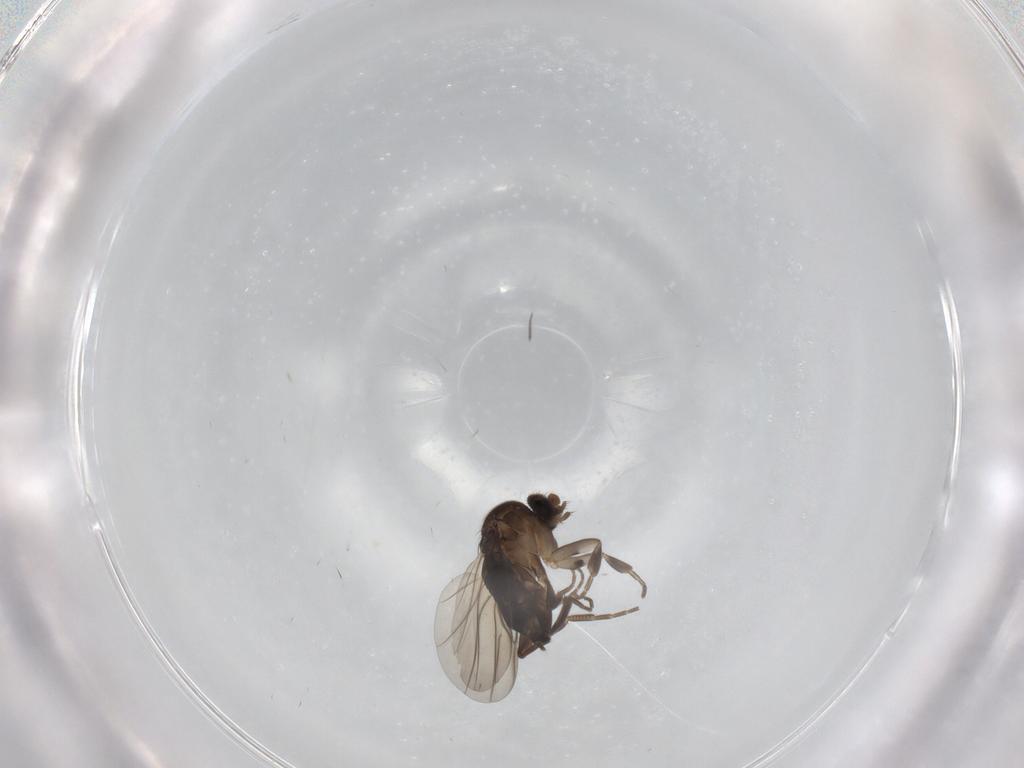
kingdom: Animalia
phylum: Arthropoda
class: Insecta
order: Diptera
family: Phoridae
